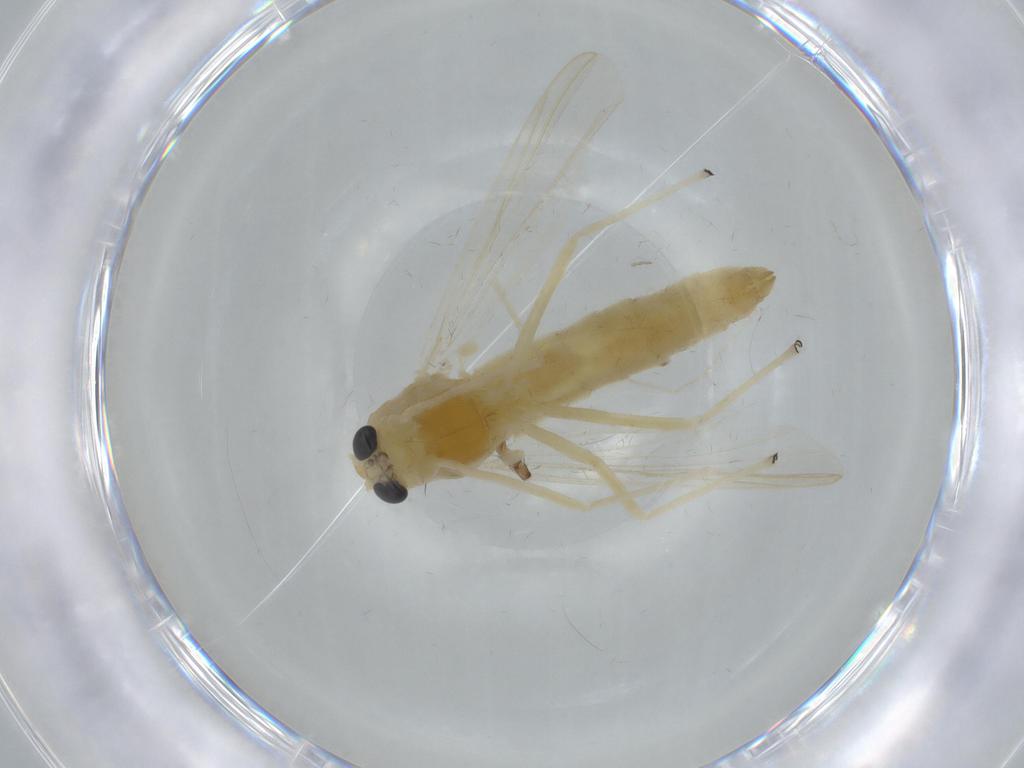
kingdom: Animalia
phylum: Arthropoda
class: Insecta
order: Diptera
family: Chironomidae
